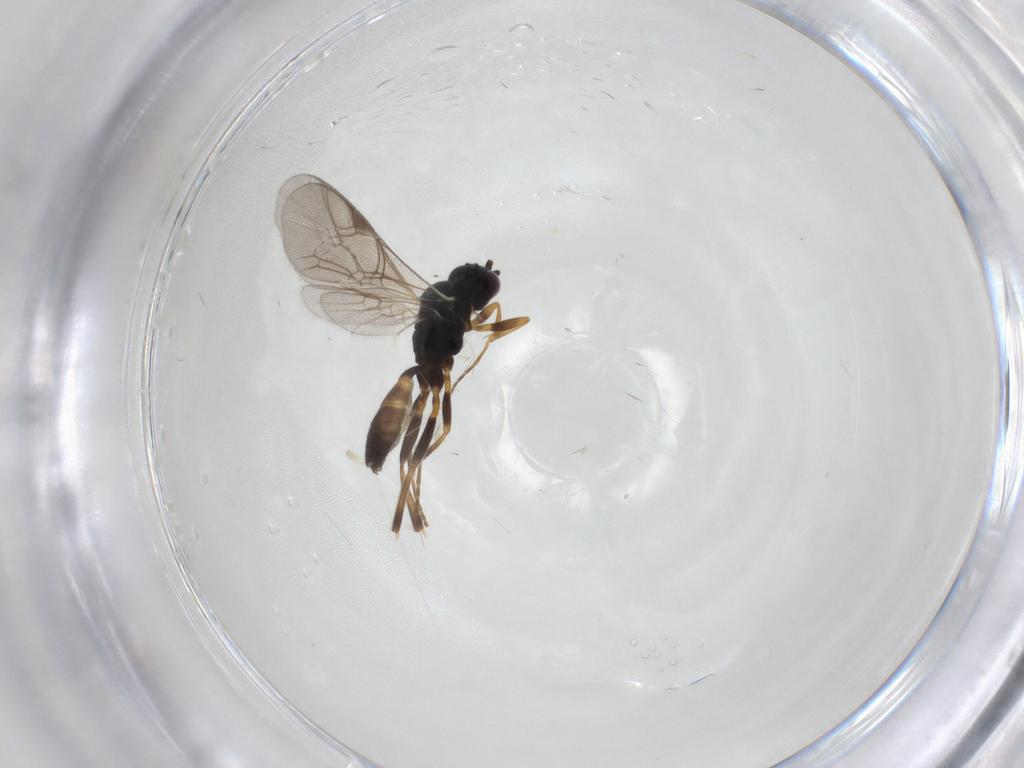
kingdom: Animalia
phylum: Arthropoda
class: Insecta
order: Hymenoptera
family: Ichneumonidae
